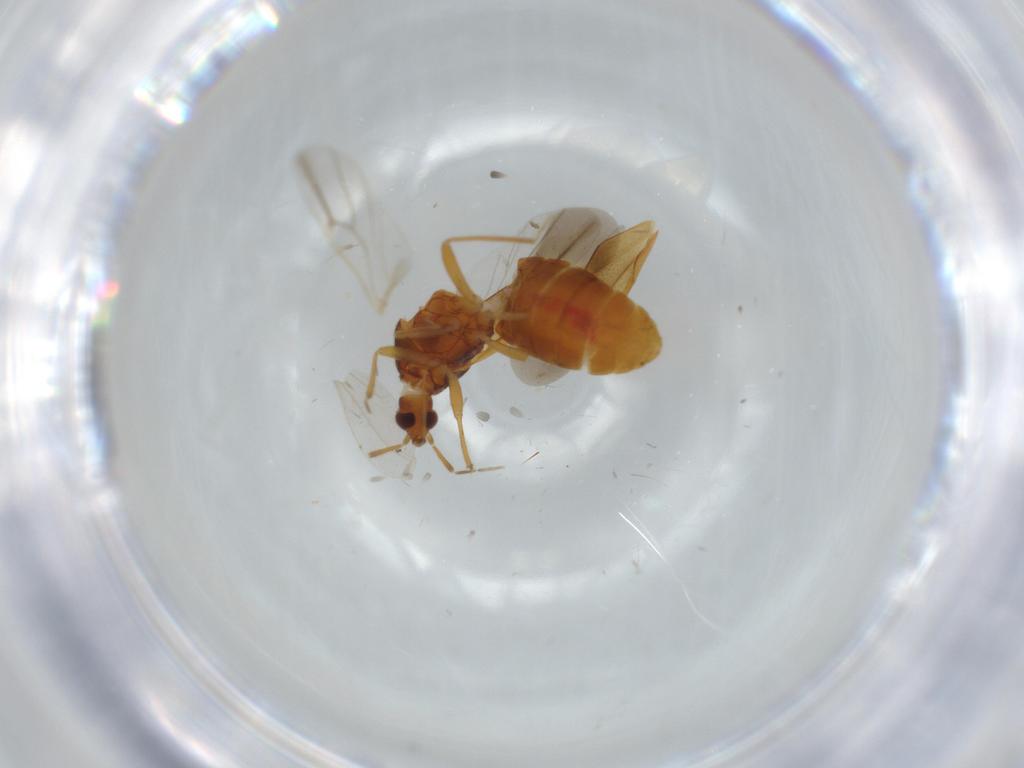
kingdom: Animalia
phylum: Arthropoda
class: Insecta
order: Hemiptera
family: Anthocoridae
